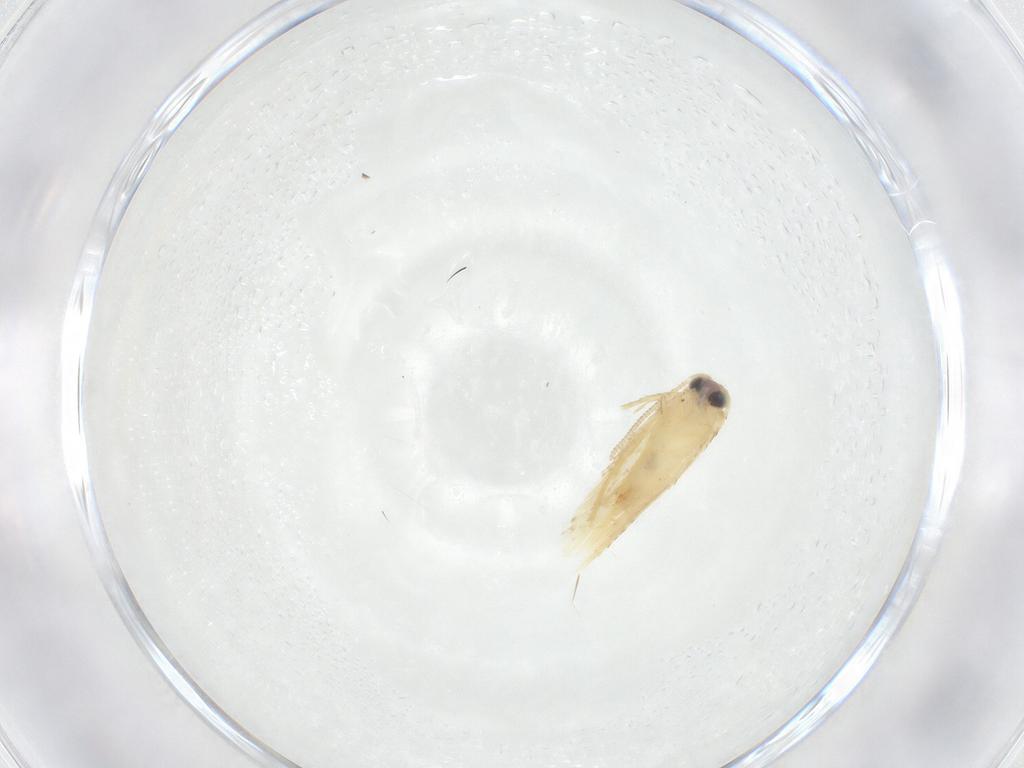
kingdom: Animalia
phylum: Arthropoda
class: Insecta
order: Lepidoptera
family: Nepticulidae
